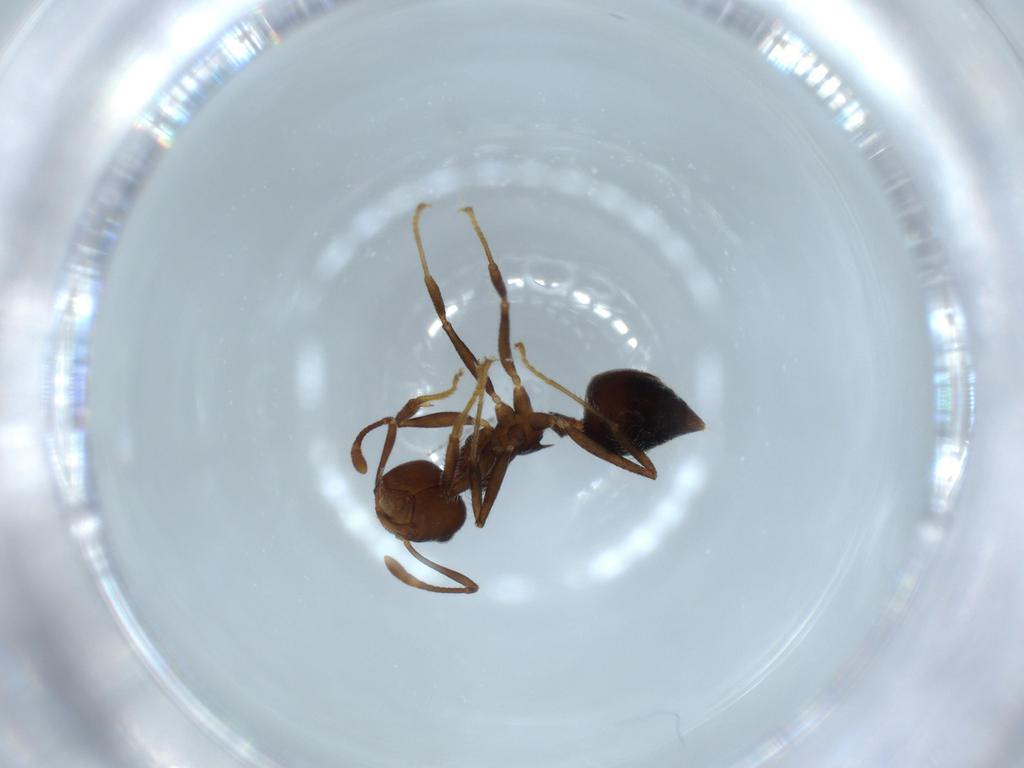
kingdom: Animalia
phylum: Arthropoda
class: Insecta
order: Hymenoptera
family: Formicidae
